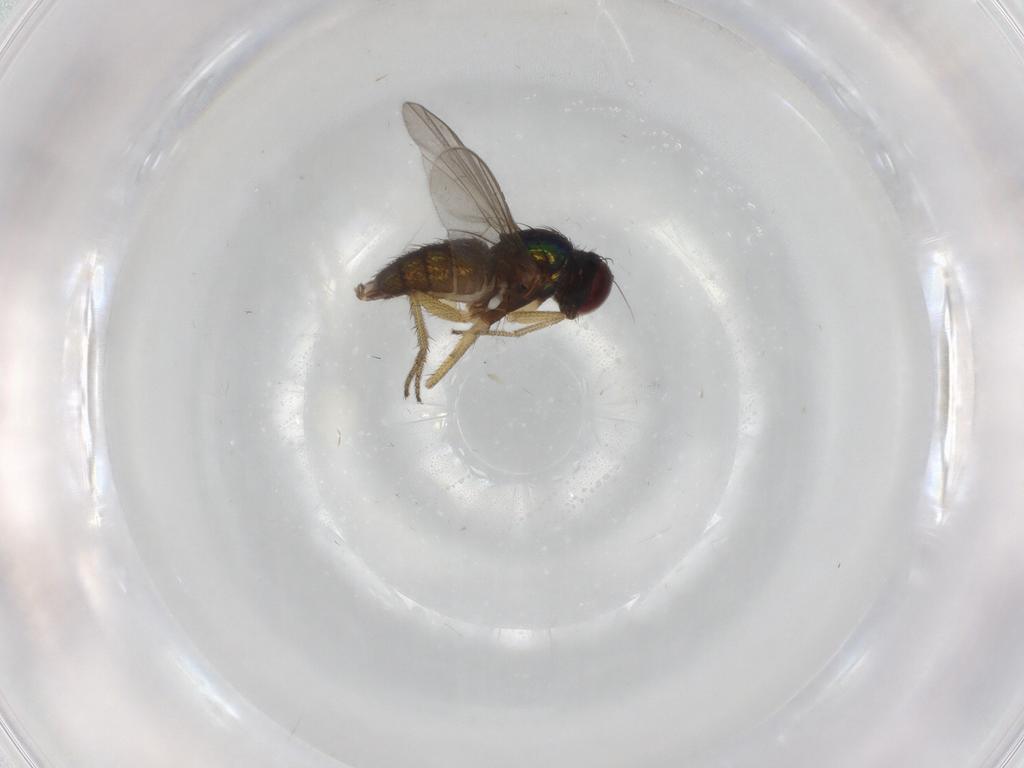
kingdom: Animalia
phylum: Arthropoda
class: Insecta
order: Diptera
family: Dolichopodidae
